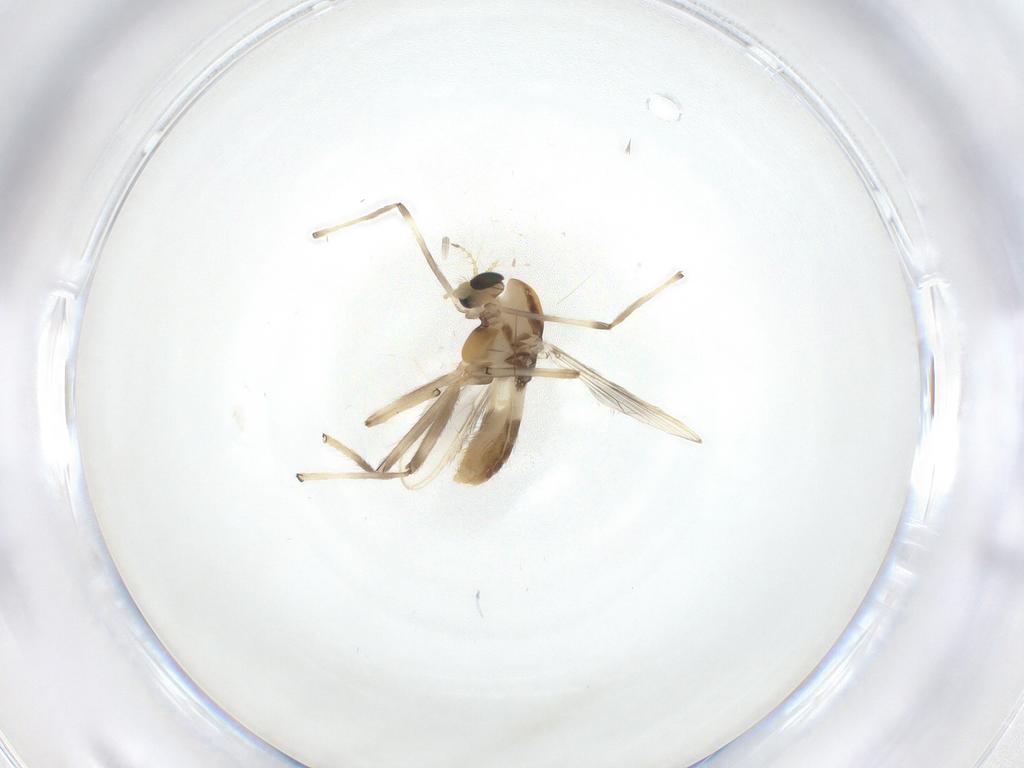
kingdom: Animalia
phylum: Arthropoda
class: Insecta
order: Diptera
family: Chironomidae
